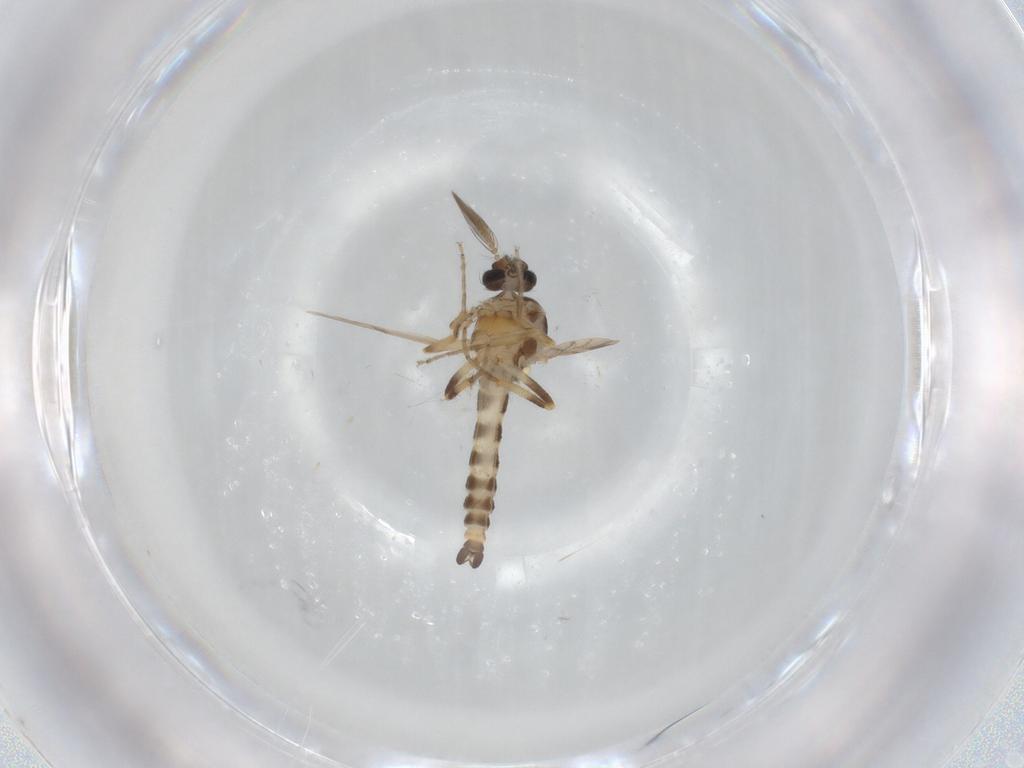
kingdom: Animalia
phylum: Arthropoda
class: Insecta
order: Diptera
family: Ceratopogonidae
